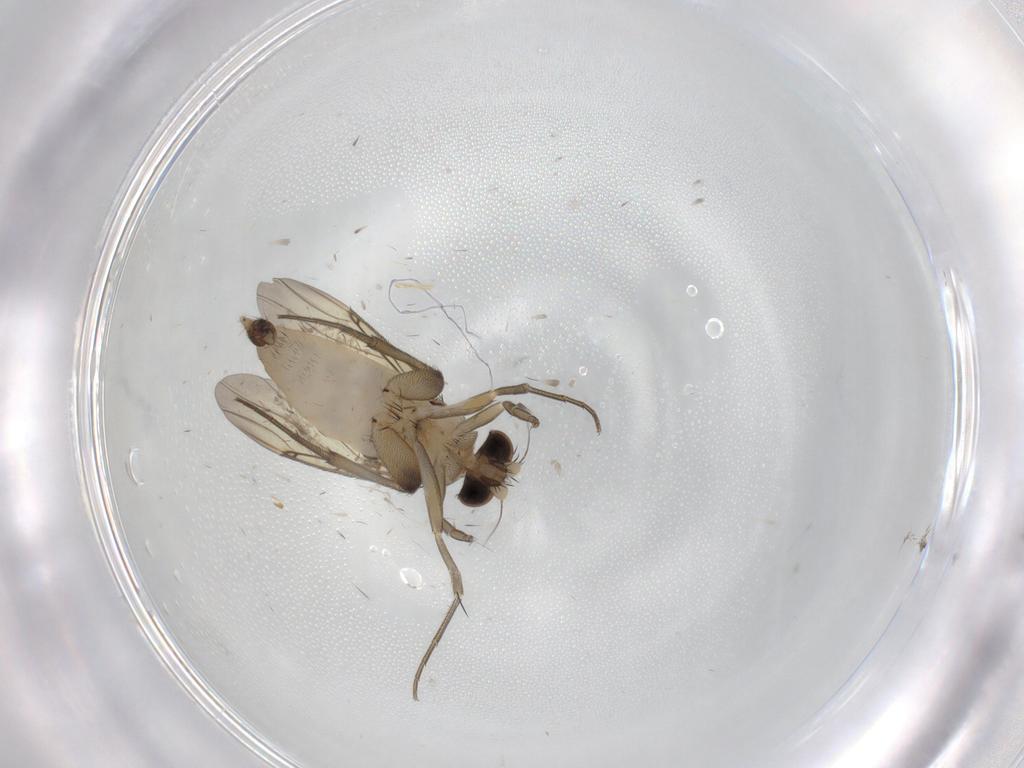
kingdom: Animalia
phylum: Arthropoda
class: Insecta
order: Diptera
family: Phoridae
